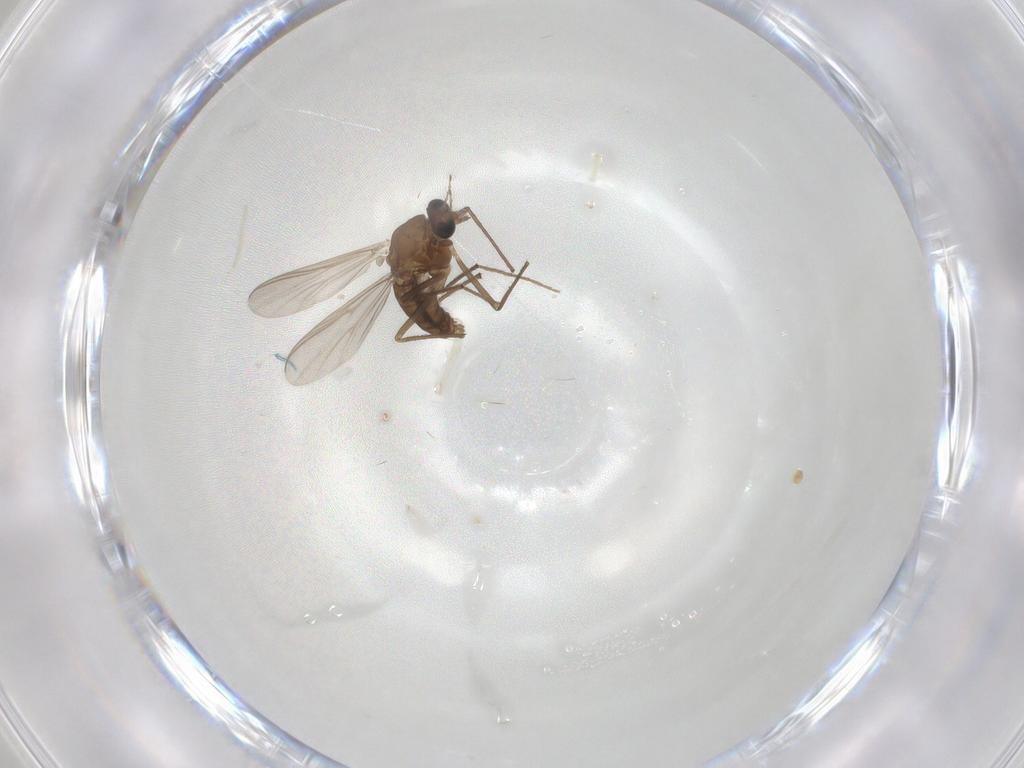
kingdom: Animalia
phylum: Arthropoda
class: Insecta
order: Diptera
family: Chironomidae
